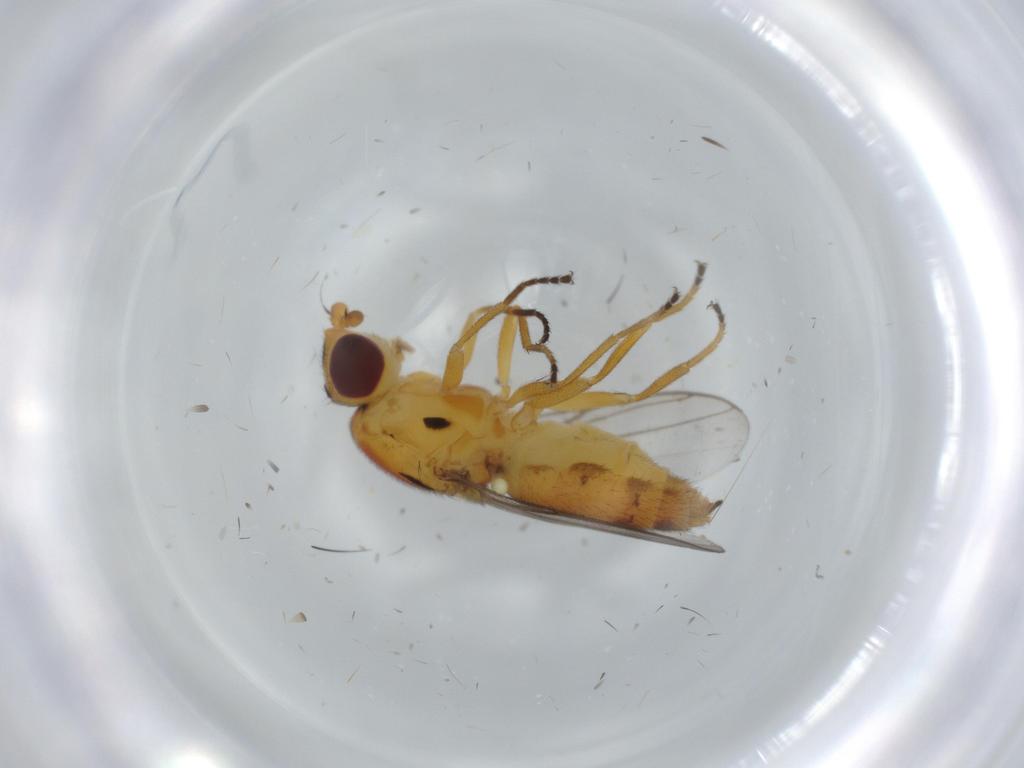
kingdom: Animalia
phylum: Arthropoda
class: Insecta
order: Diptera
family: Chloropidae
